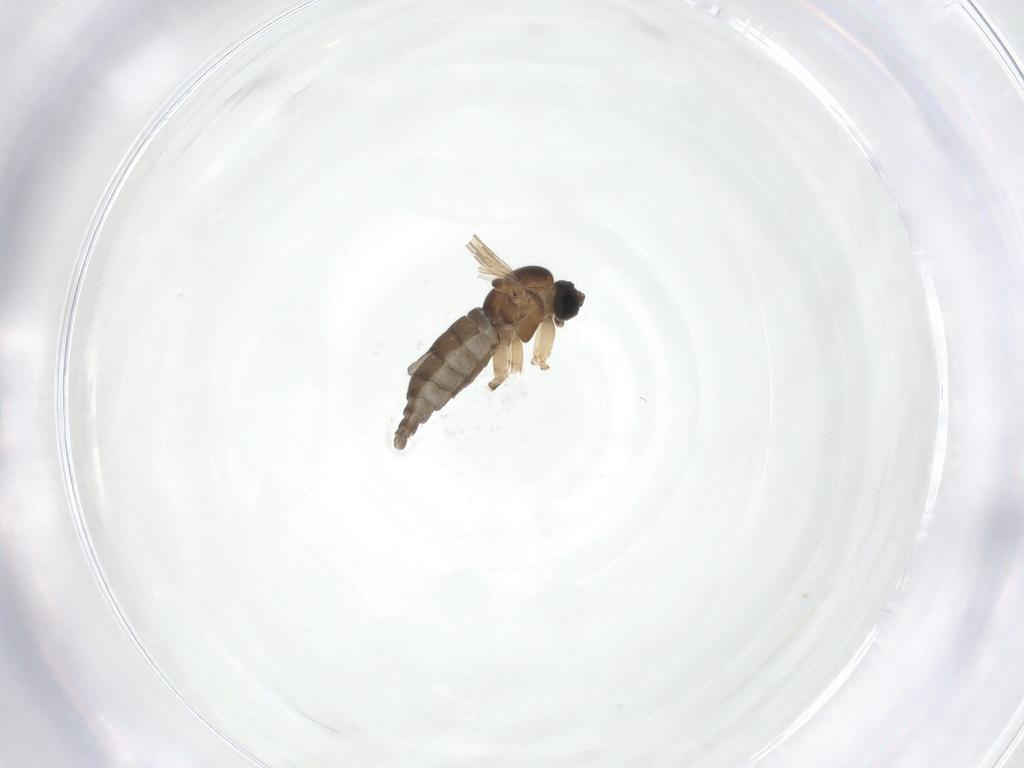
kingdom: Animalia
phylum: Arthropoda
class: Insecta
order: Diptera
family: Sciaridae
